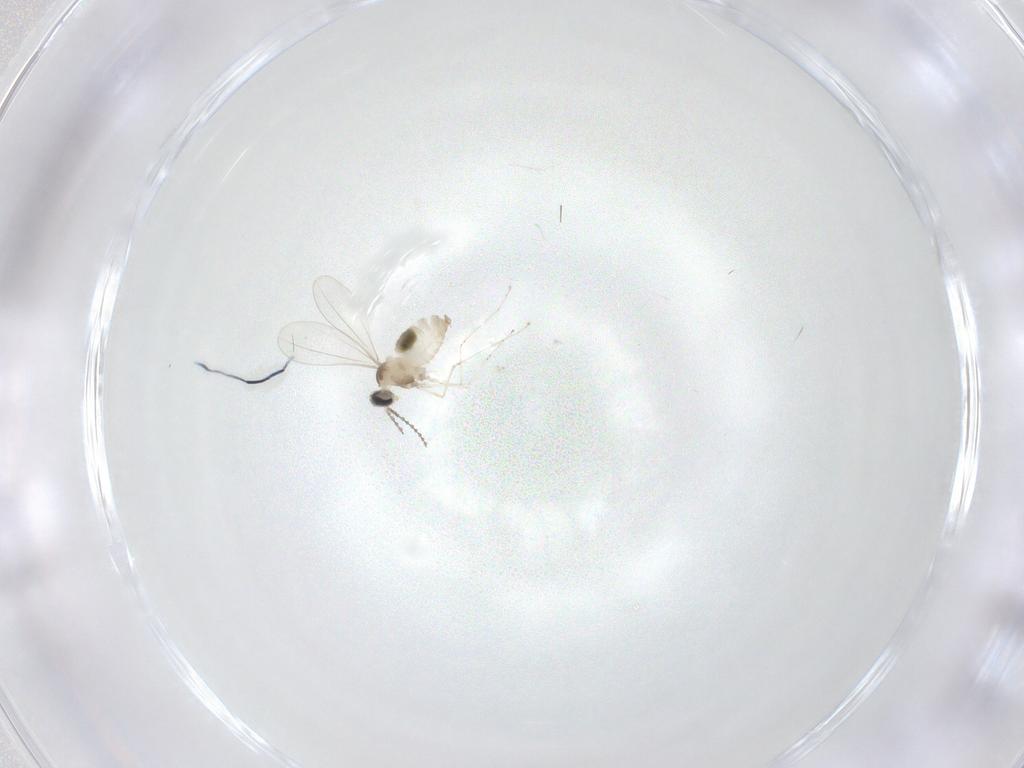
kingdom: Animalia
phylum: Arthropoda
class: Insecta
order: Diptera
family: Cecidomyiidae
